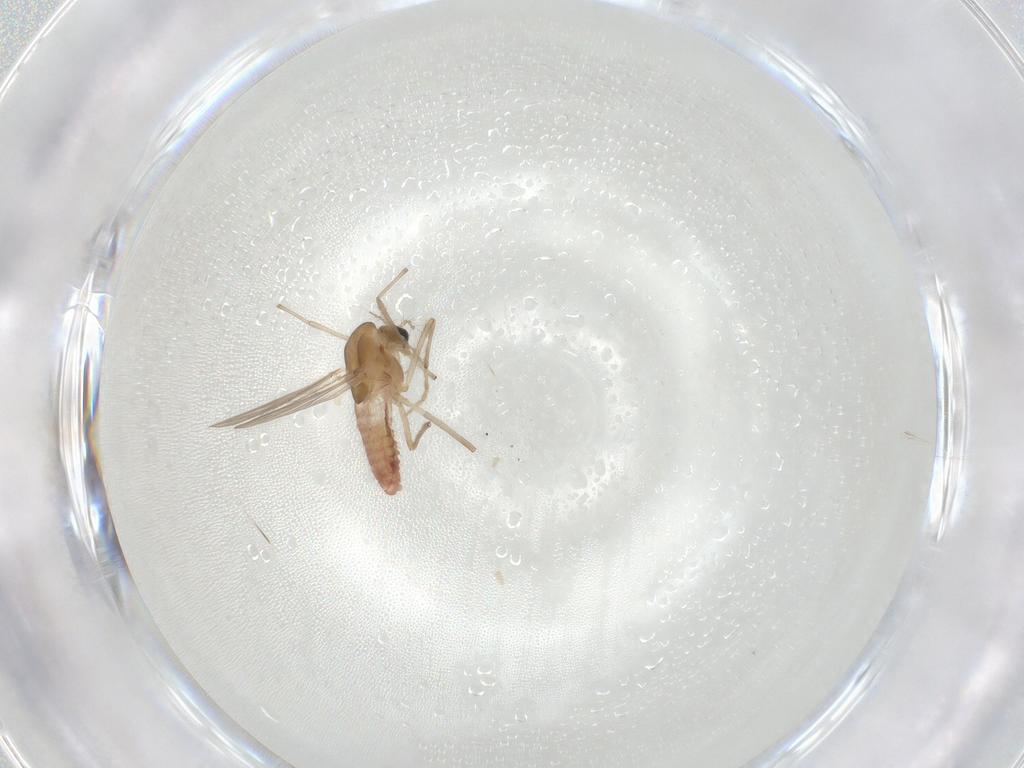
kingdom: Animalia
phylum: Arthropoda
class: Insecta
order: Diptera
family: Chironomidae
